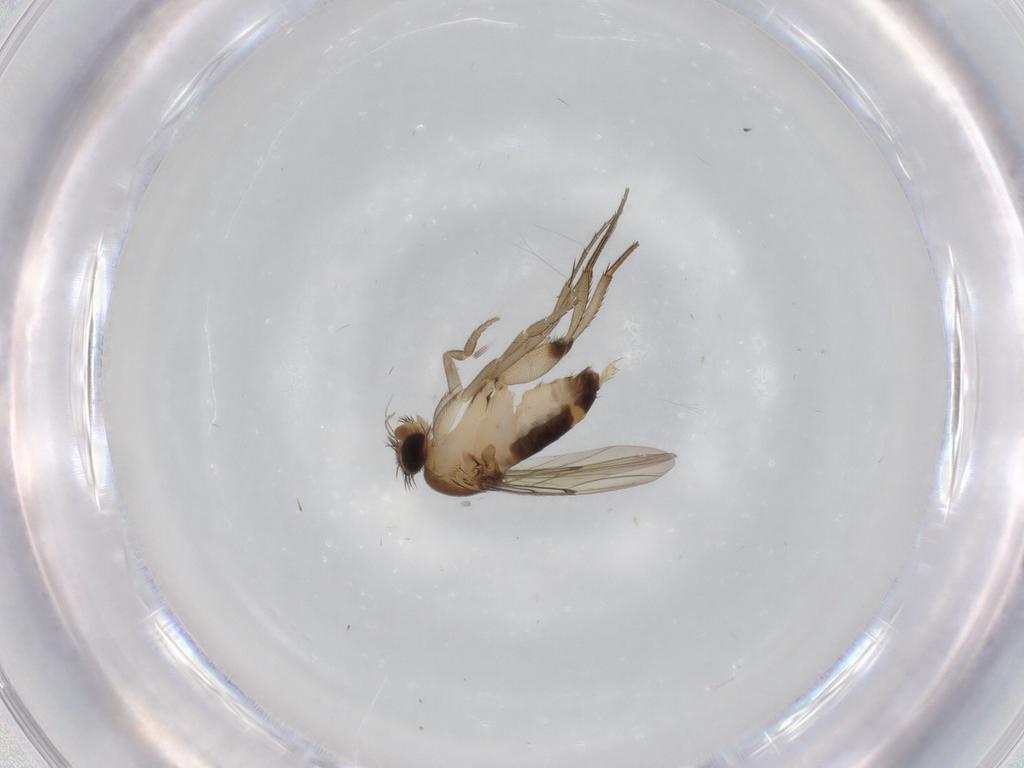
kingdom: Animalia
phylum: Arthropoda
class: Insecta
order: Diptera
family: Phoridae
